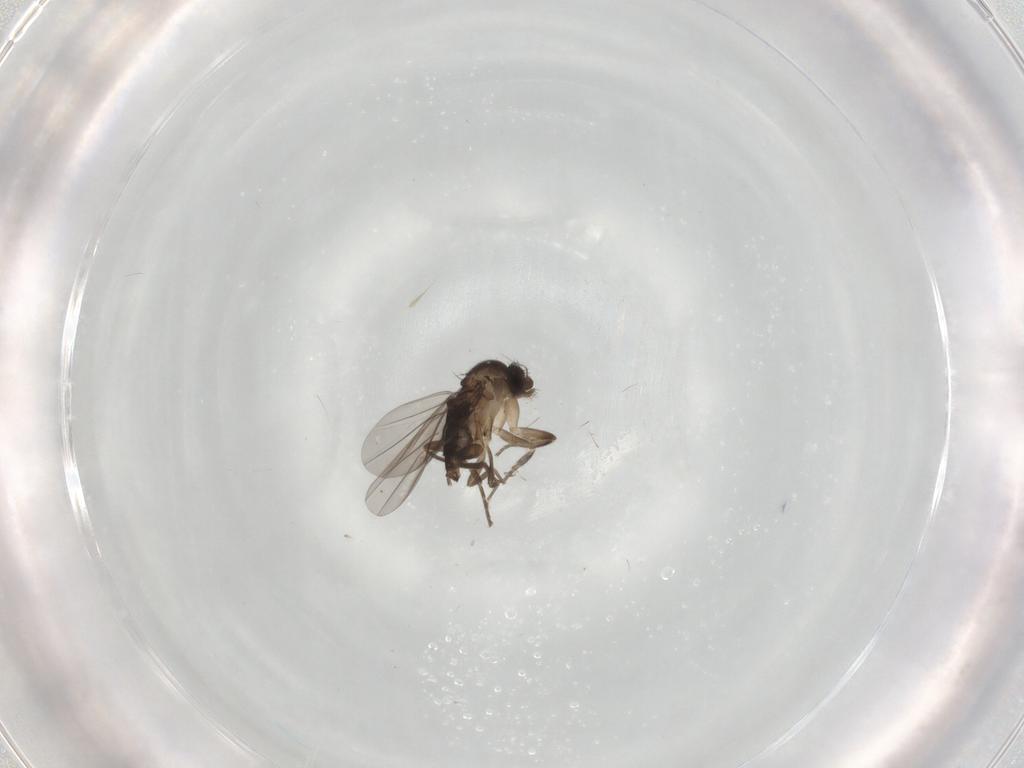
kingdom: Animalia
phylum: Arthropoda
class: Insecta
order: Diptera
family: Phoridae
